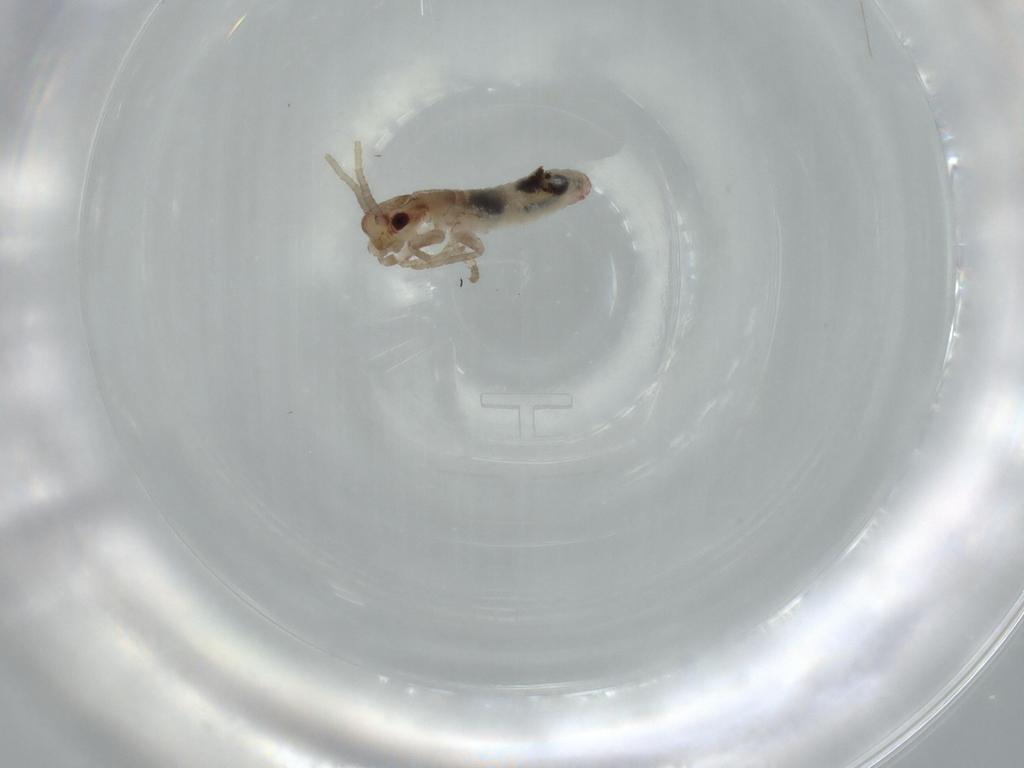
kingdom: Animalia
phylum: Arthropoda
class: Insecta
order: Orthoptera
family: Mogoplistidae
